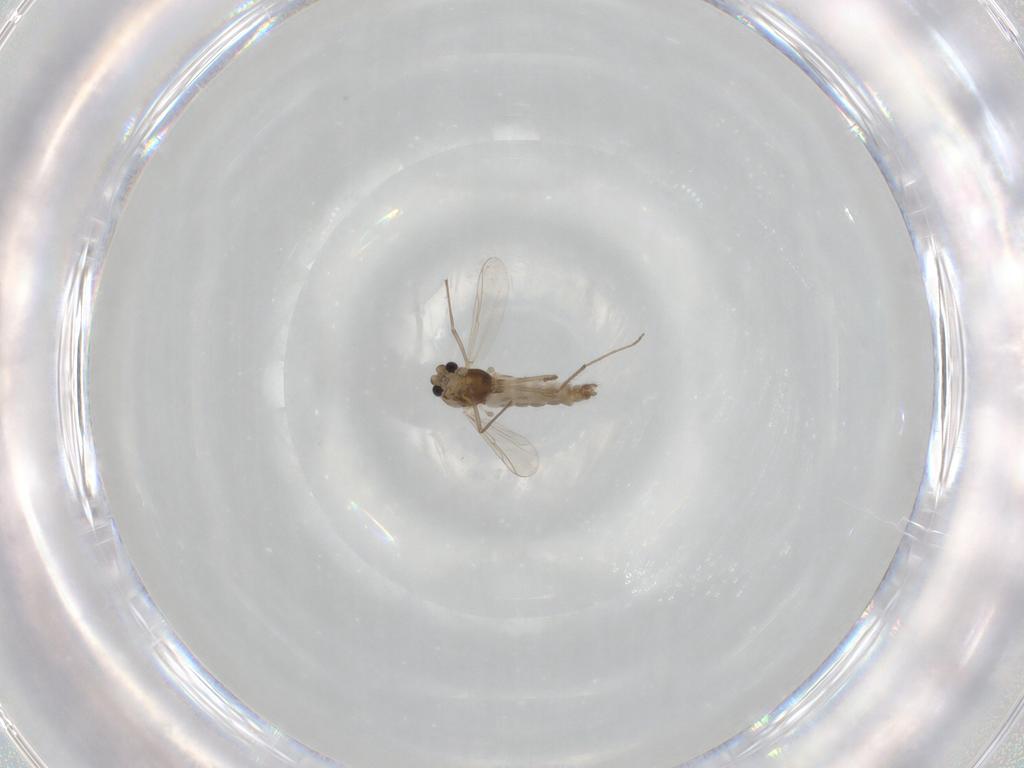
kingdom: Animalia
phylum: Arthropoda
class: Insecta
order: Diptera
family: Chironomidae
